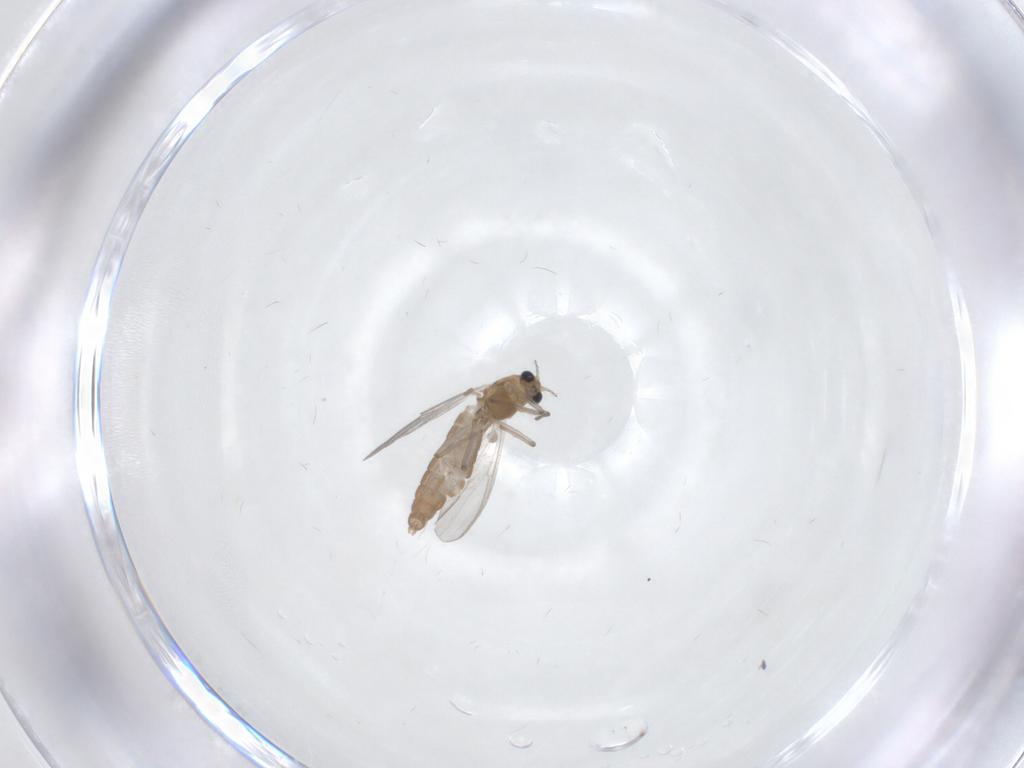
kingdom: Animalia
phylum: Arthropoda
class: Insecta
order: Diptera
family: Chironomidae
